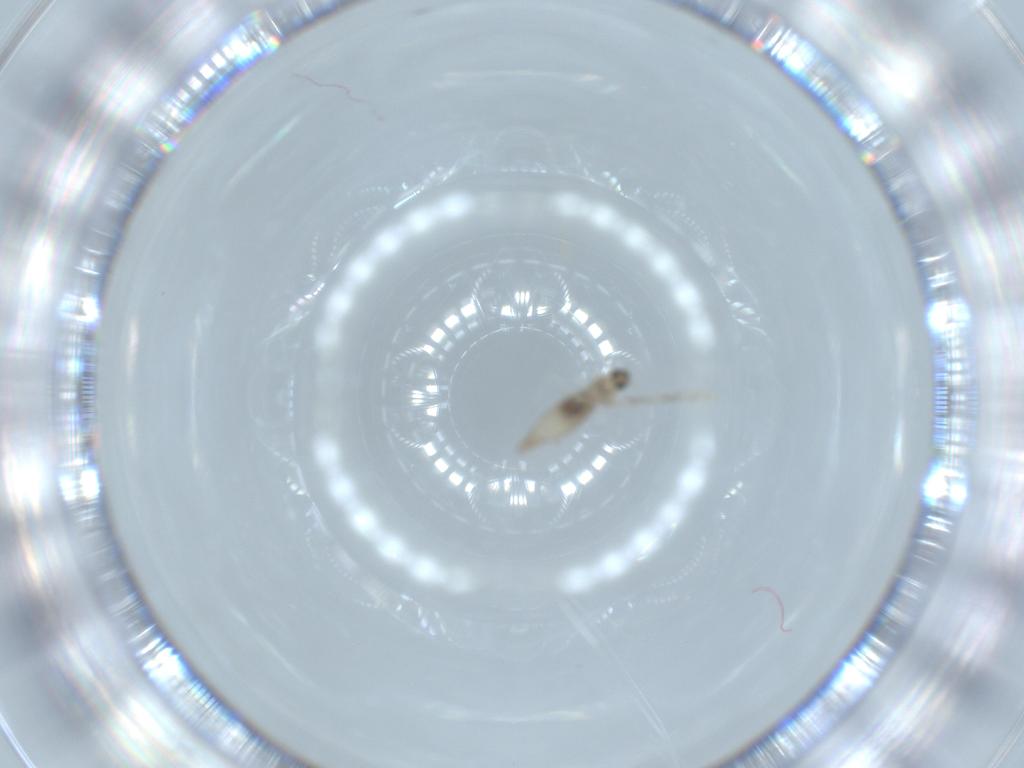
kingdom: Animalia
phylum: Arthropoda
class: Insecta
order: Diptera
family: Cecidomyiidae
